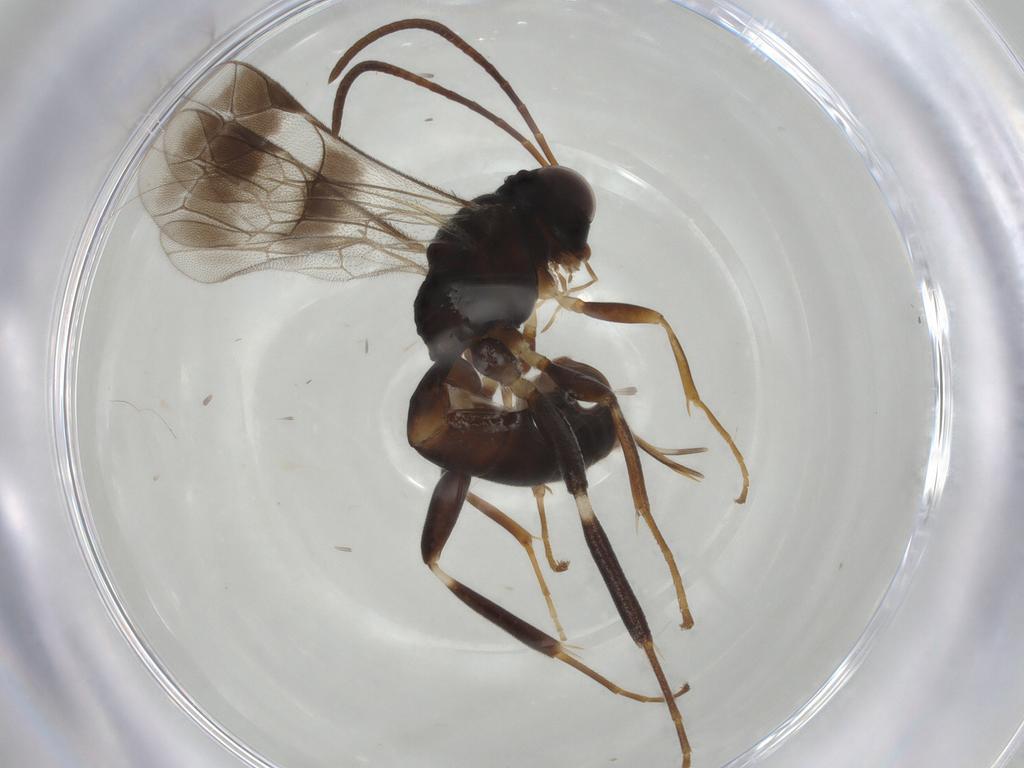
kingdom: Animalia
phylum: Arthropoda
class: Insecta
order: Hymenoptera
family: Ichneumonidae
